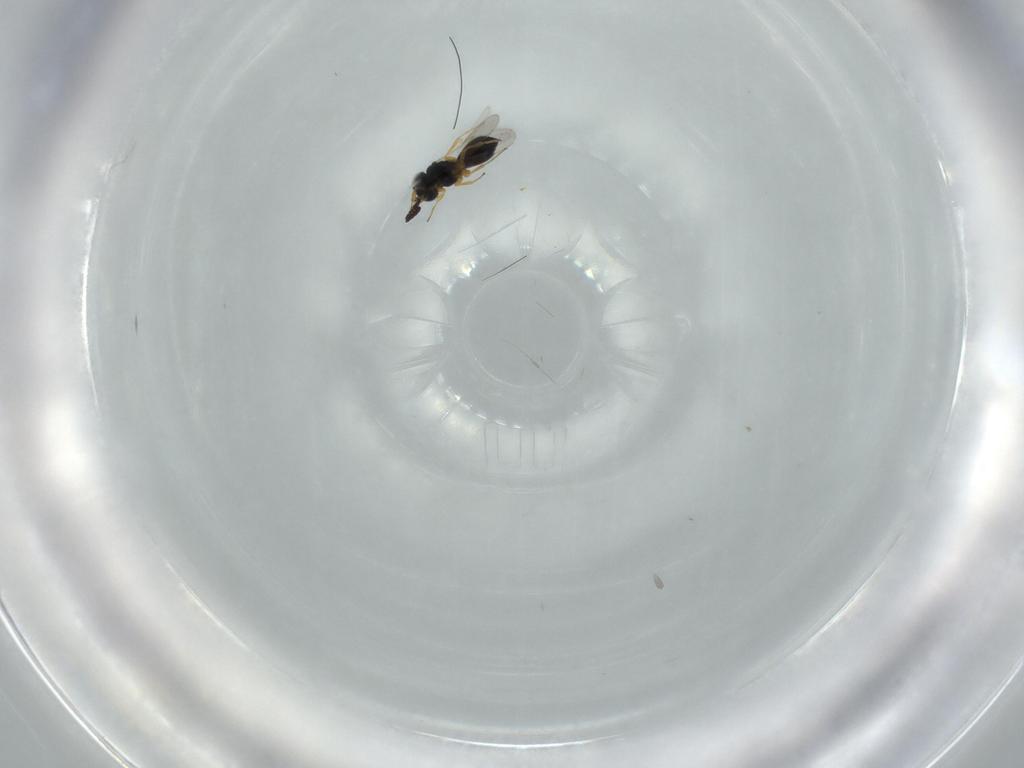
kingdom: Animalia
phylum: Arthropoda
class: Insecta
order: Hymenoptera
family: Scelionidae
